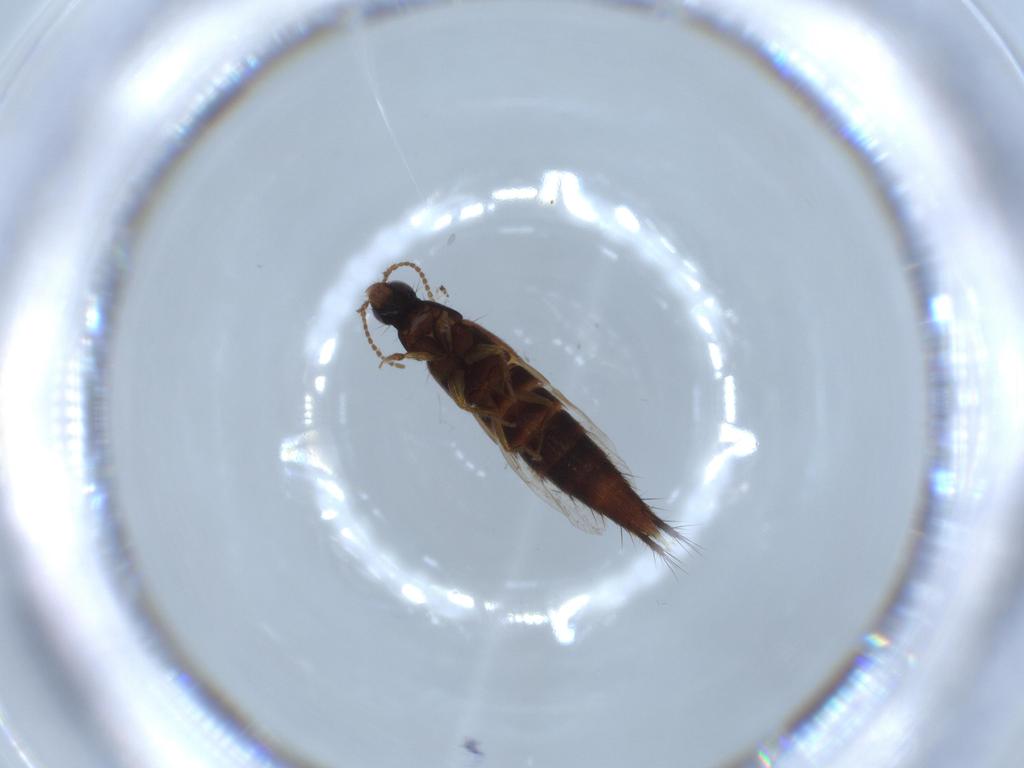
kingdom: Animalia
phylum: Arthropoda
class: Insecta
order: Coleoptera
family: Staphylinidae
